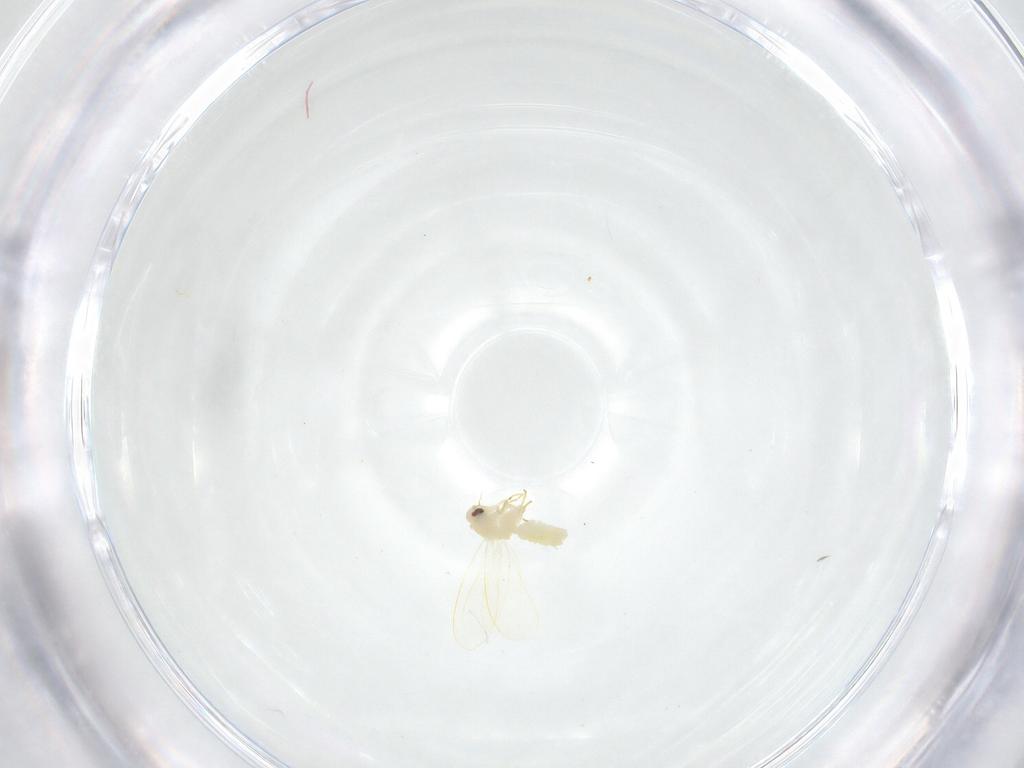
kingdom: Animalia
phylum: Arthropoda
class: Insecta
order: Hemiptera
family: Aleyrodidae
